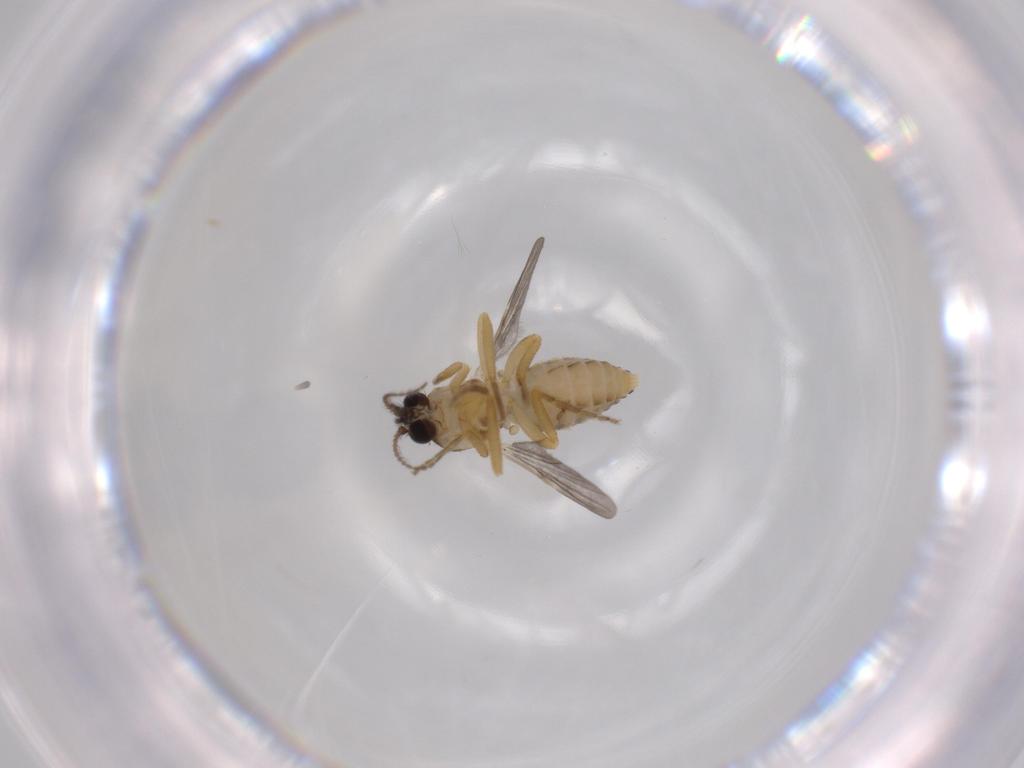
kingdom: Animalia
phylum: Arthropoda
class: Insecta
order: Diptera
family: Ceratopogonidae
